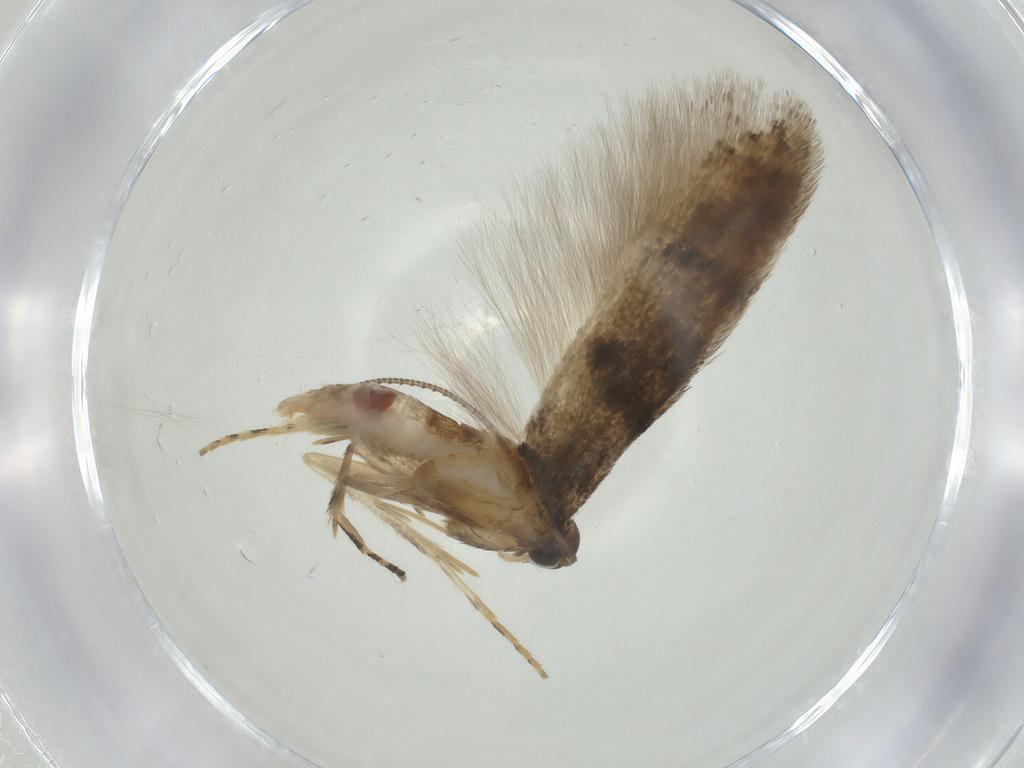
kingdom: Animalia
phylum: Arthropoda
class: Insecta
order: Lepidoptera
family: Gelechiidae
